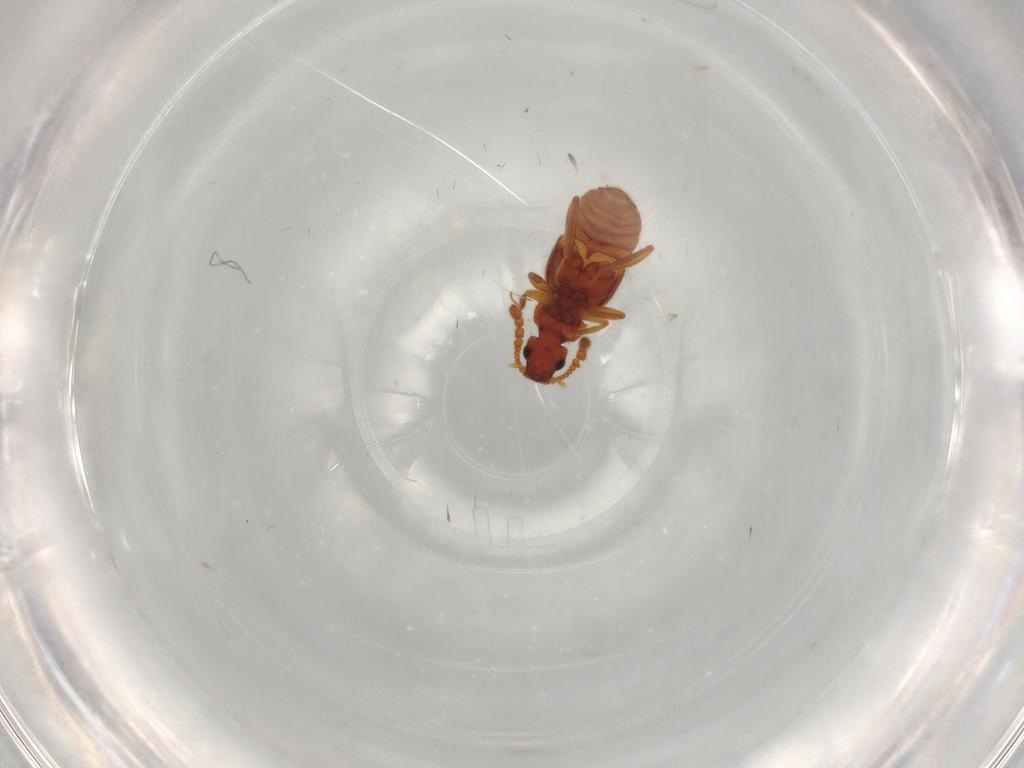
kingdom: Animalia
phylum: Arthropoda
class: Insecta
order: Coleoptera
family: Staphylinidae
